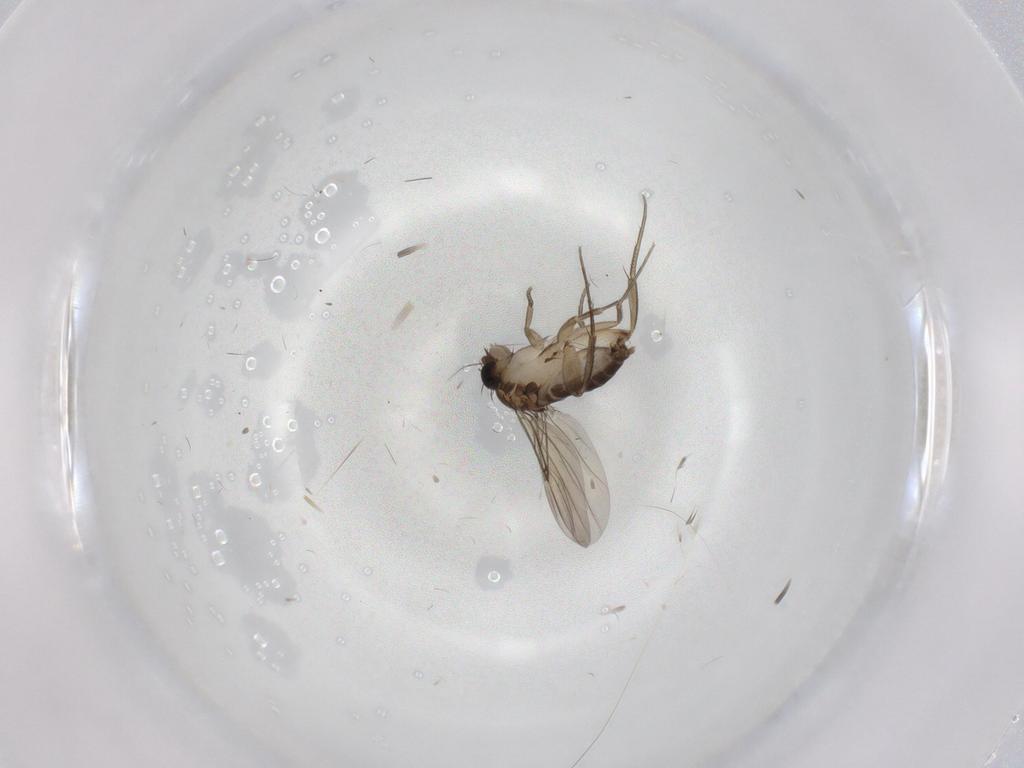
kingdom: Animalia
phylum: Arthropoda
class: Insecta
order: Diptera
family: Phoridae
